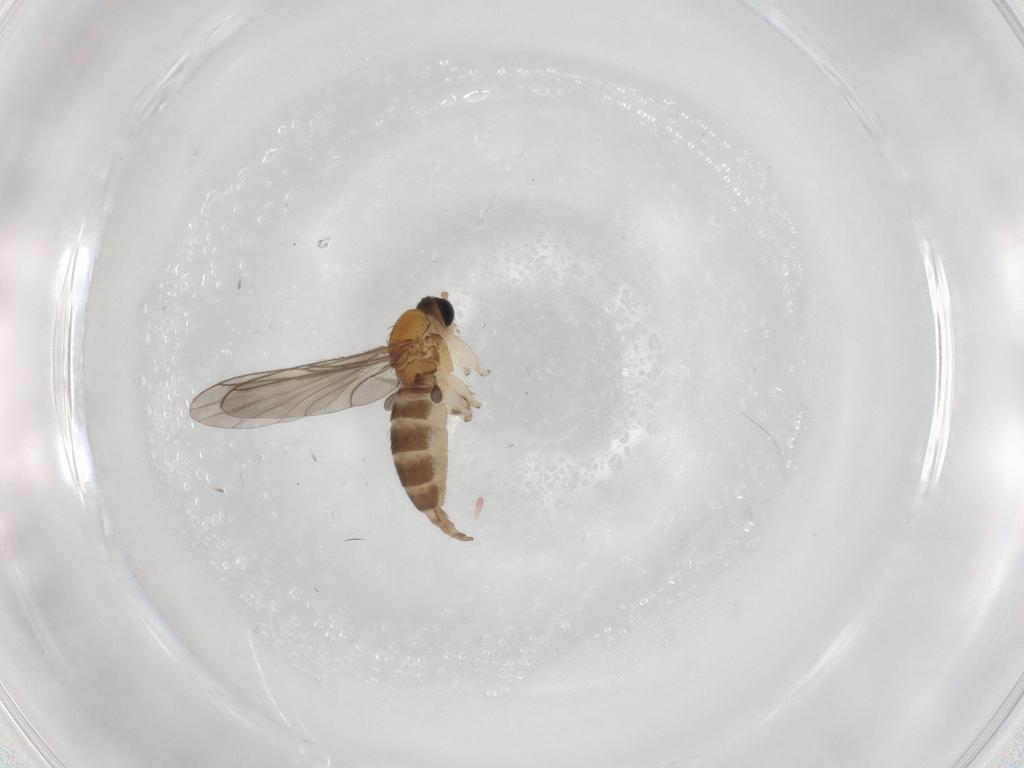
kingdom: Animalia
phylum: Arthropoda
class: Insecta
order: Diptera
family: Sciaridae
